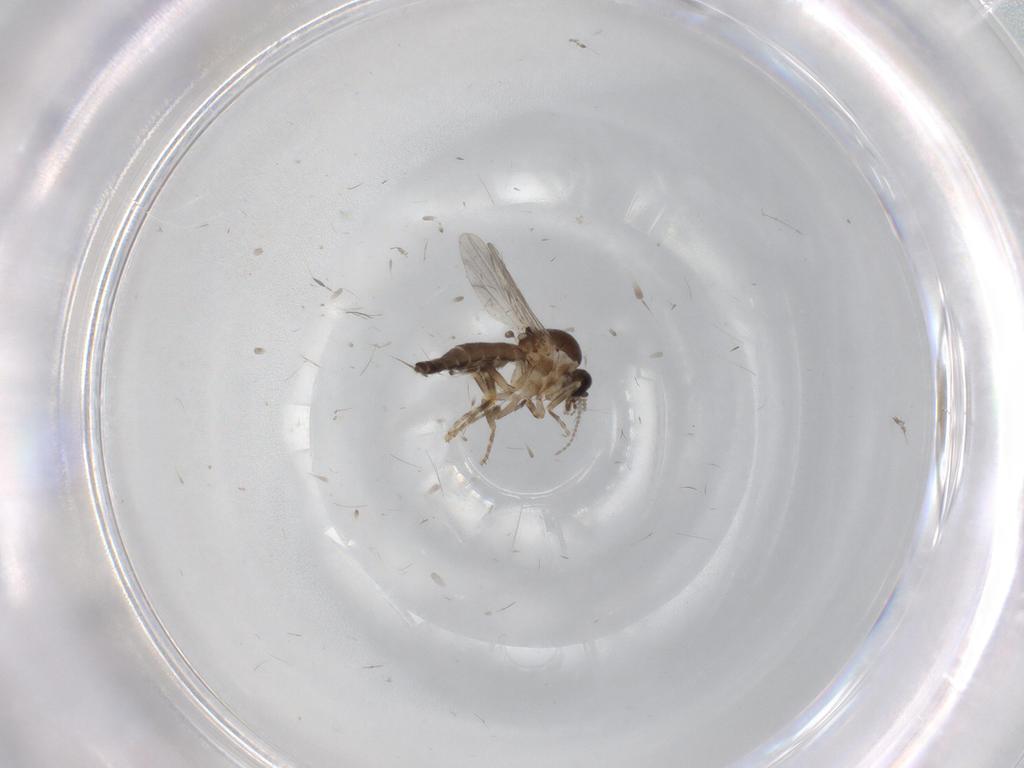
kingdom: Animalia
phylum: Arthropoda
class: Insecta
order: Diptera
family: Ceratopogonidae
